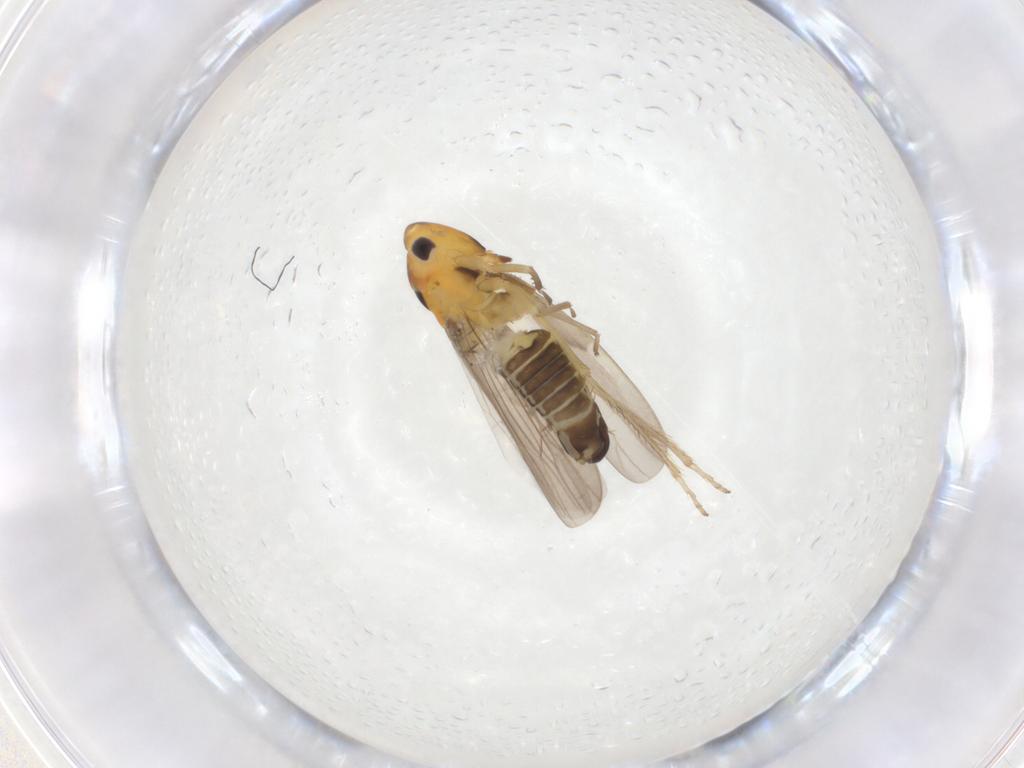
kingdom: Animalia
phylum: Arthropoda
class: Insecta
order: Hemiptera
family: Cicadellidae
